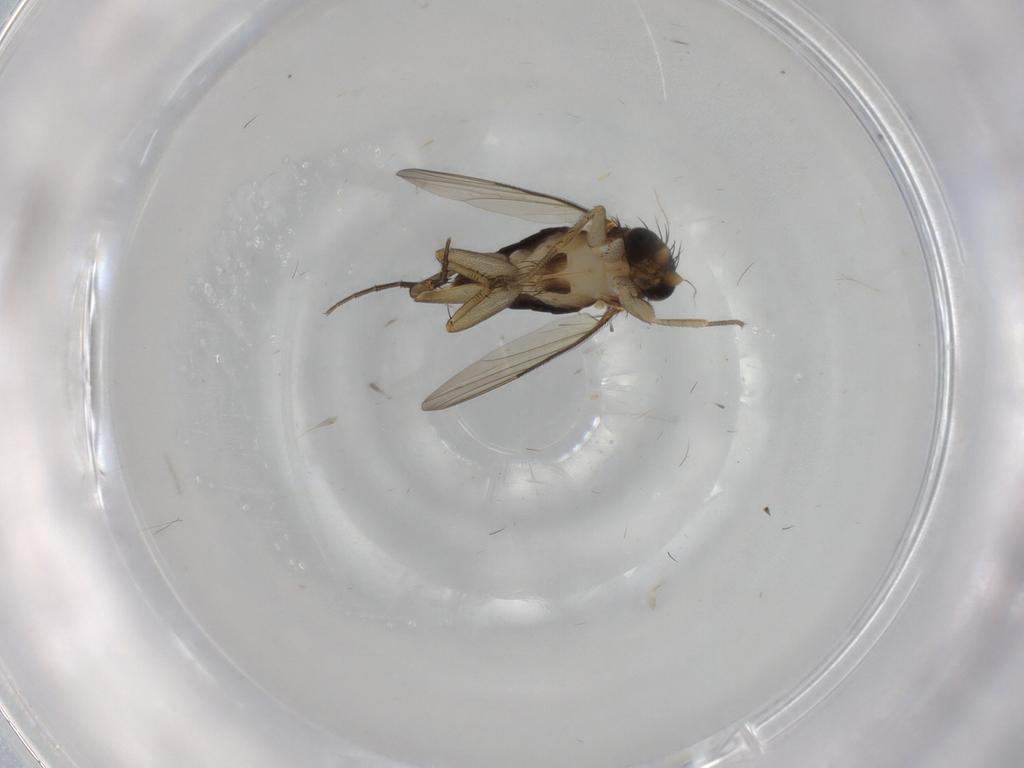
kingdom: Animalia
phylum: Arthropoda
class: Insecta
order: Diptera
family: Phoridae
